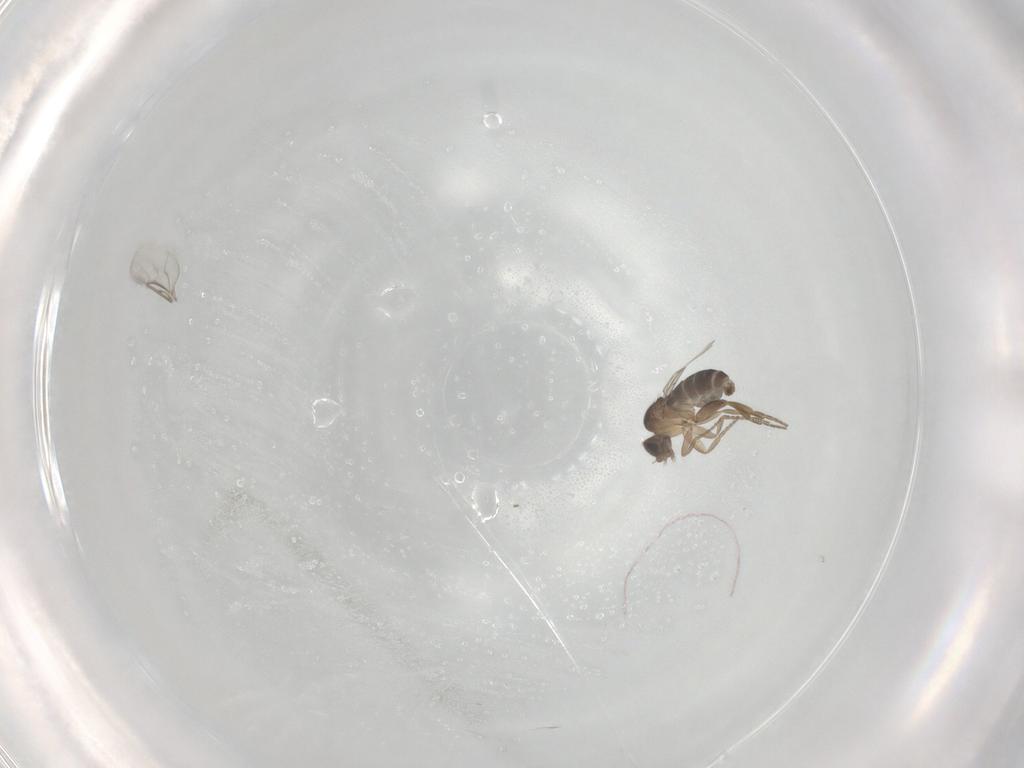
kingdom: Animalia
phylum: Arthropoda
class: Insecta
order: Diptera
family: Phoridae
